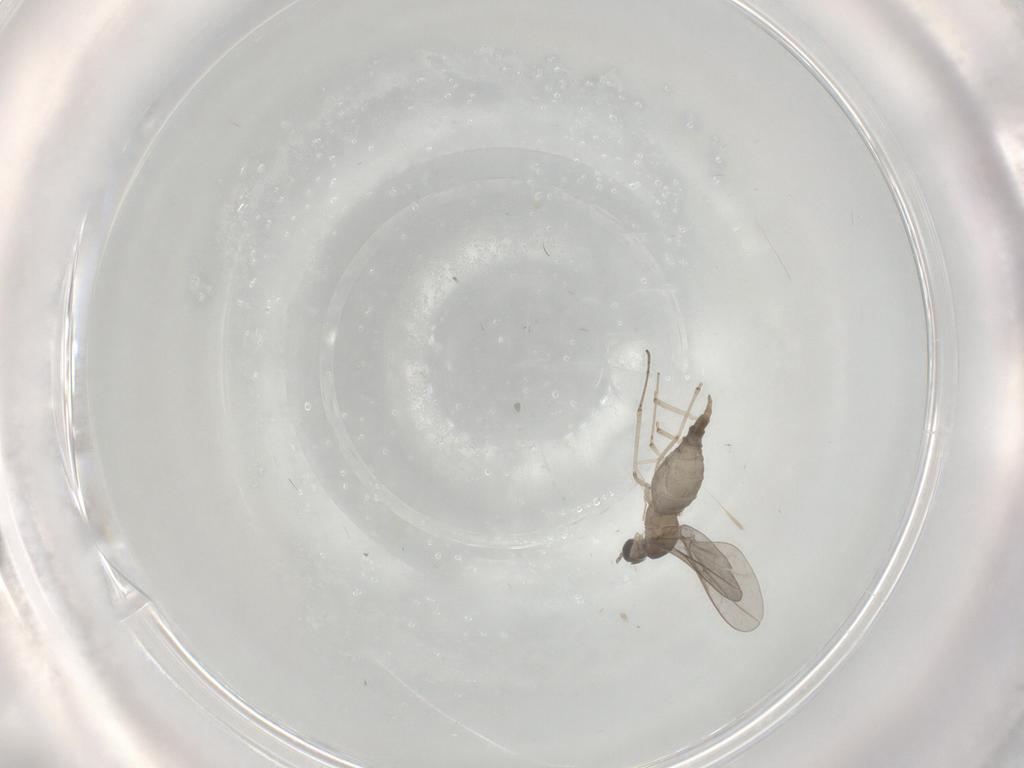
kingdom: Animalia
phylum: Arthropoda
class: Insecta
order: Diptera
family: Cecidomyiidae
